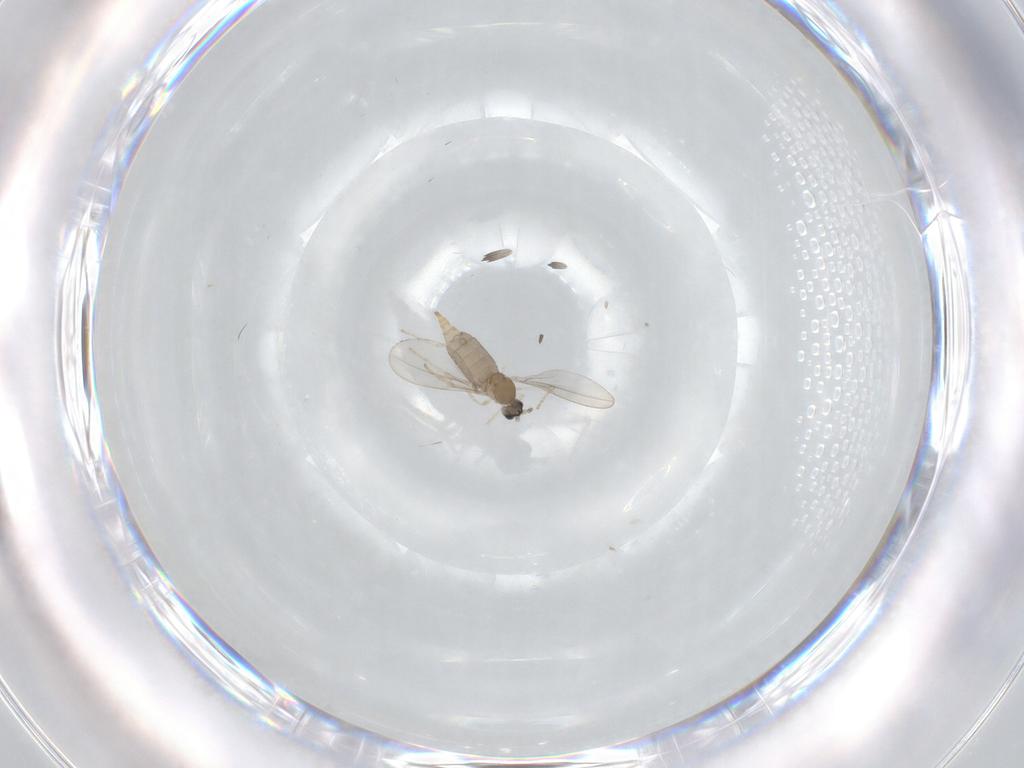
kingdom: Animalia
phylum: Arthropoda
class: Insecta
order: Diptera
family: Cecidomyiidae
